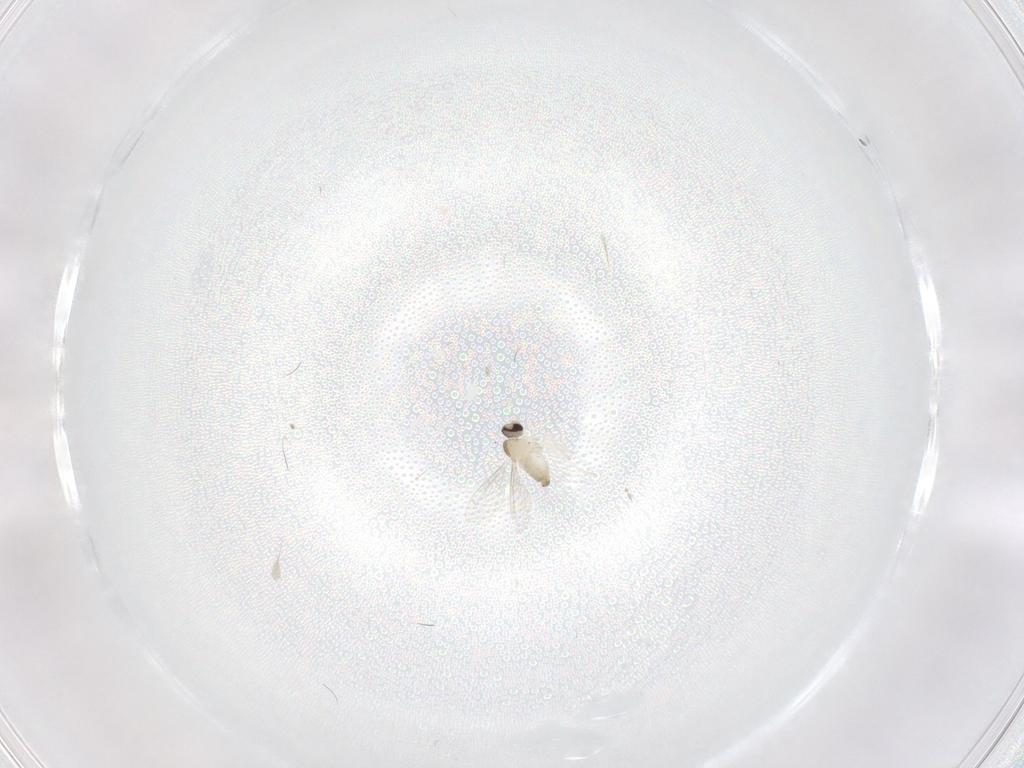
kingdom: Animalia
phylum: Arthropoda
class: Insecta
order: Diptera
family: Cecidomyiidae
